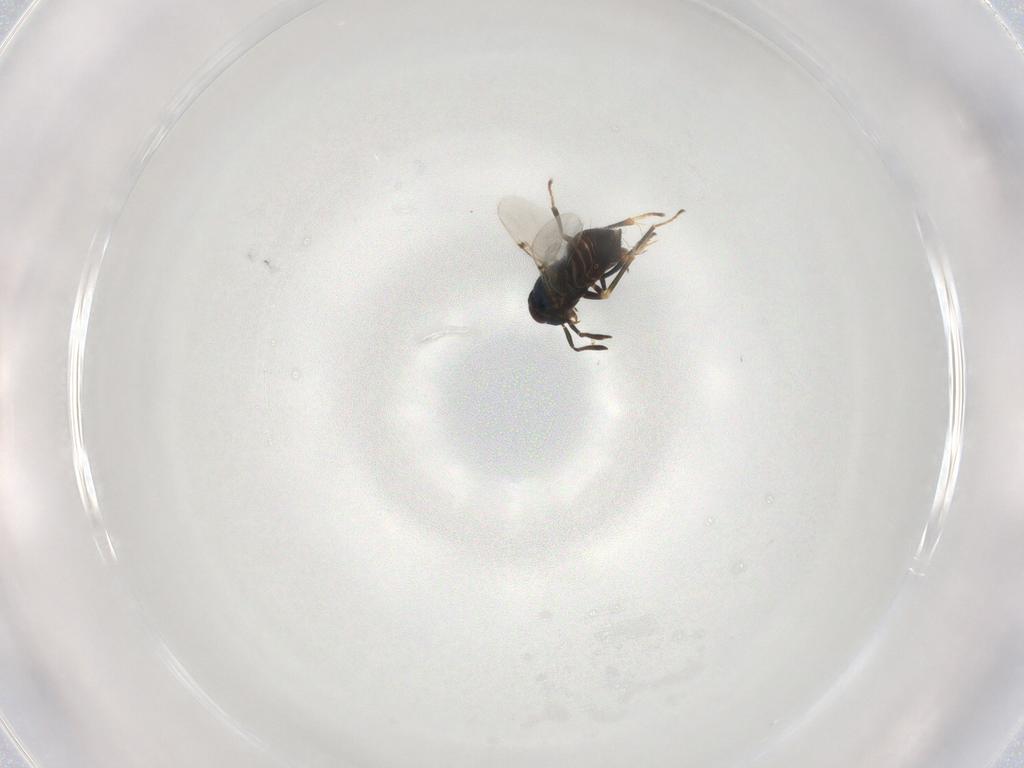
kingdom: Animalia
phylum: Arthropoda
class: Insecta
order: Hymenoptera
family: Encyrtidae
